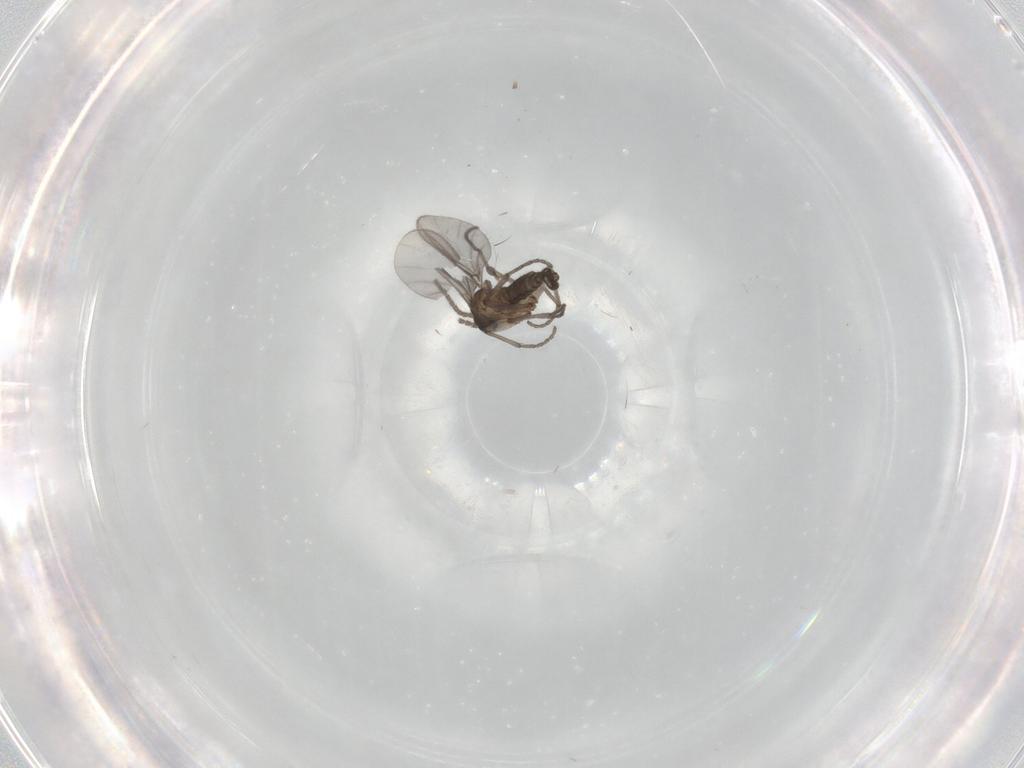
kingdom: Animalia
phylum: Arthropoda
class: Insecta
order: Diptera
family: Sciaridae
